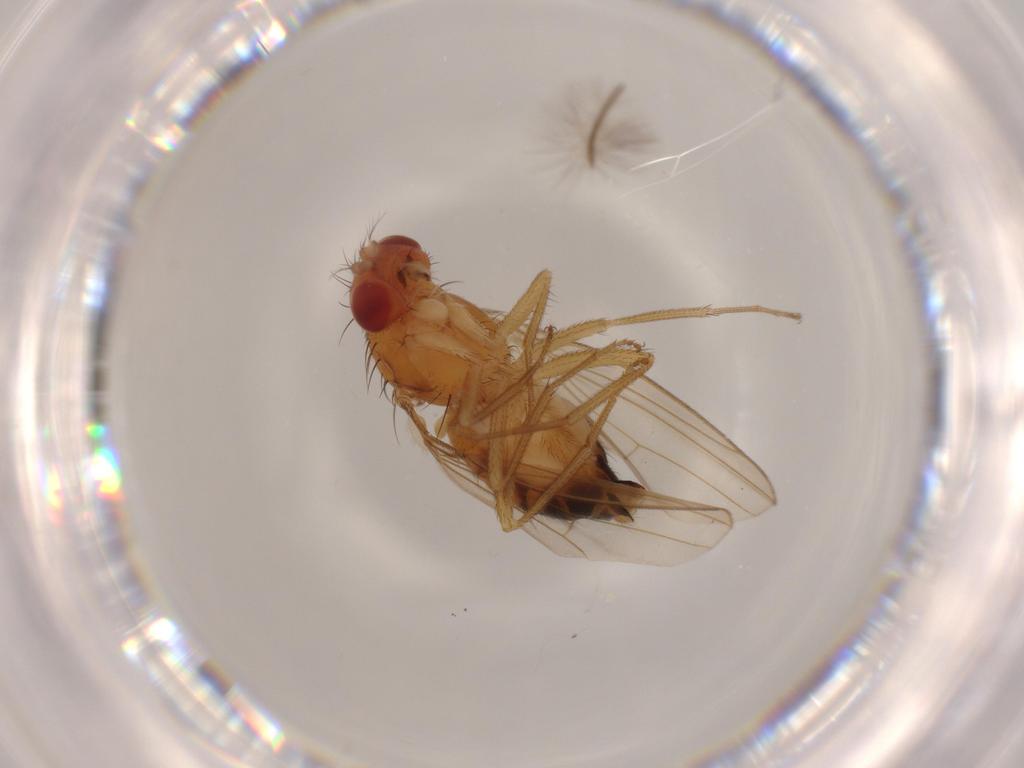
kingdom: Animalia
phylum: Arthropoda
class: Insecta
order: Diptera
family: Drosophilidae
